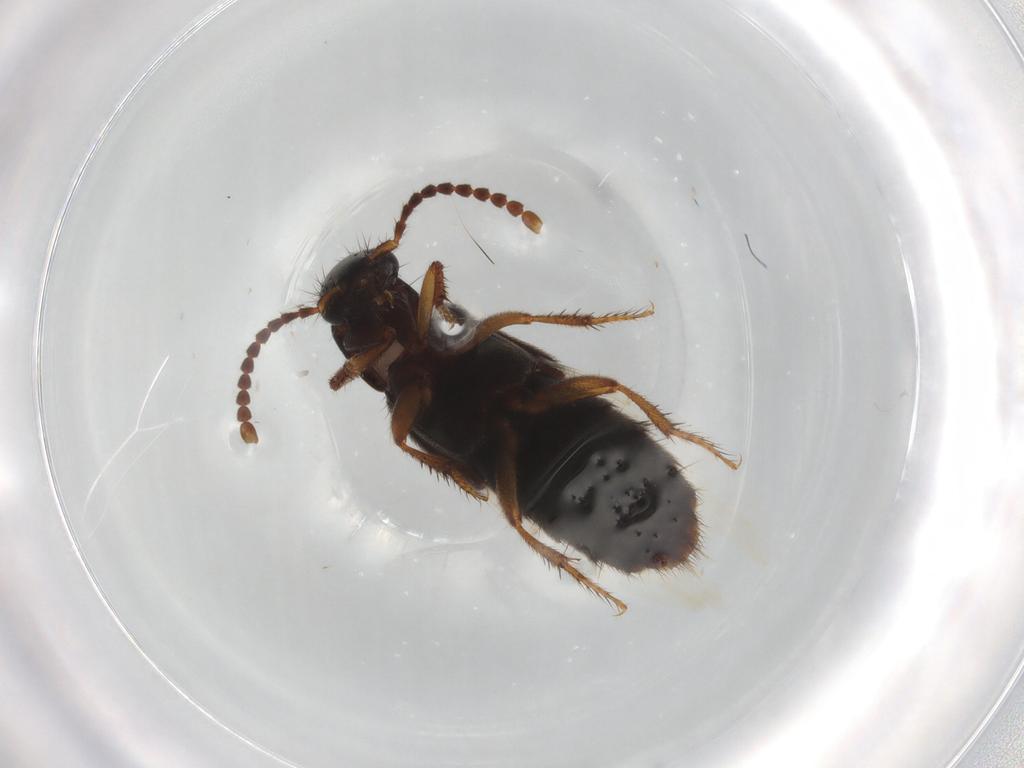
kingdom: Animalia
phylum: Arthropoda
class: Insecta
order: Coleoptera
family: Staphylinidae
